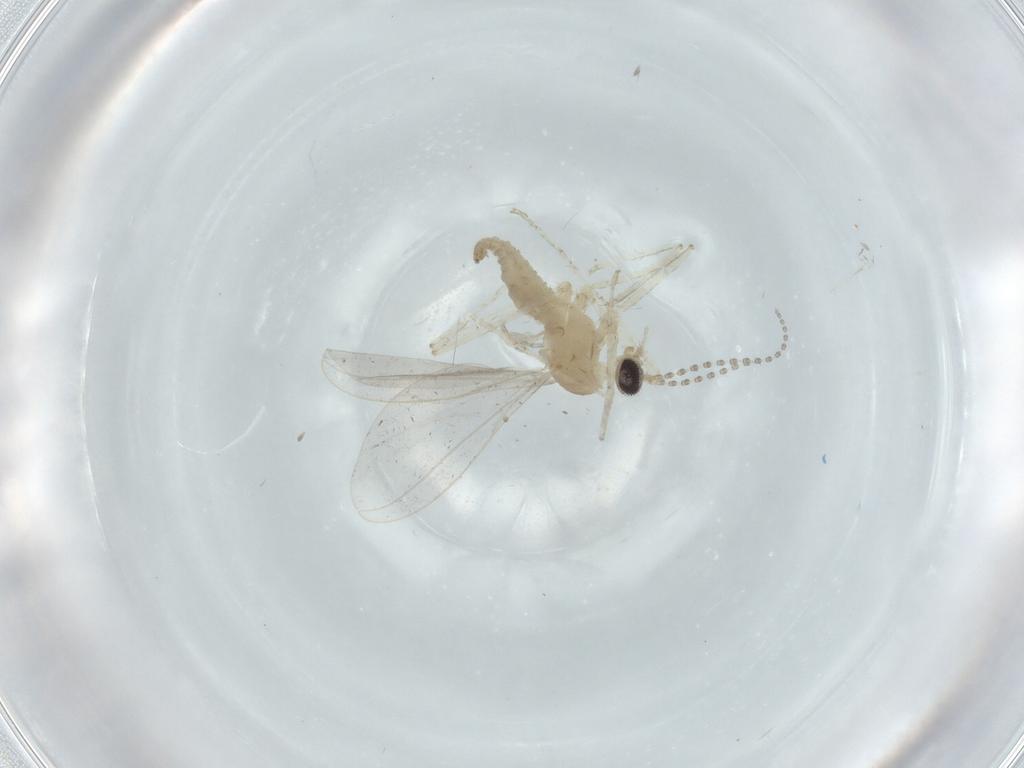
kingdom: Animalia
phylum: Arthropoda
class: Insecta
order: Diptera
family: Cecidomyiidae
